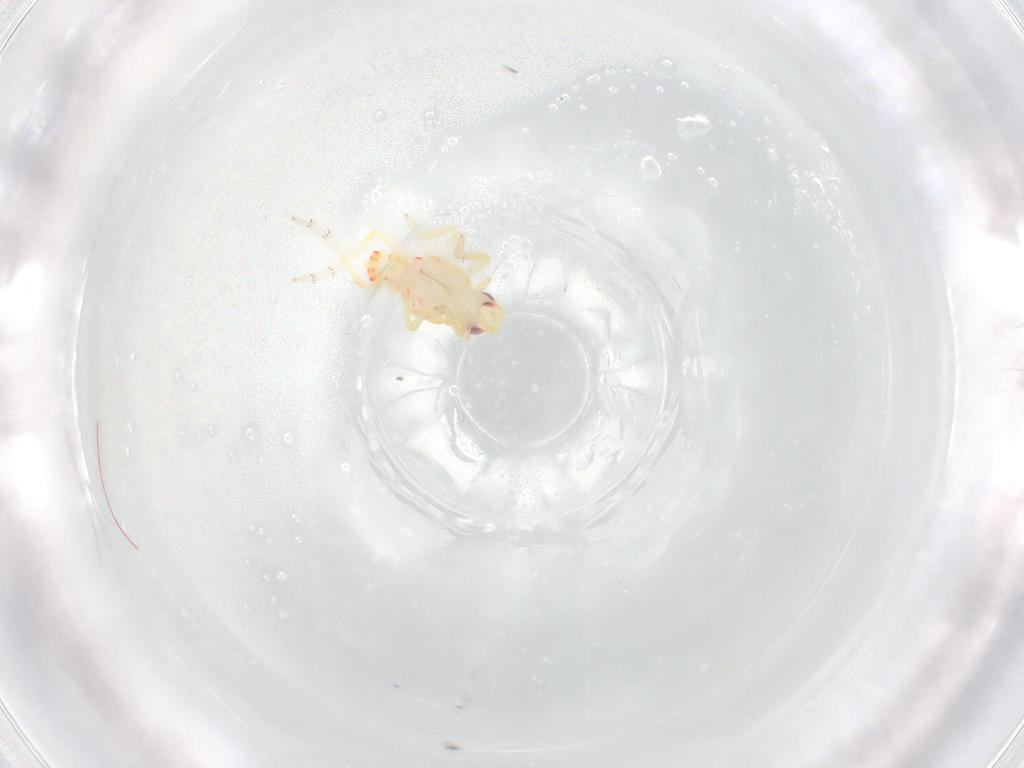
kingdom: Animalia
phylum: Arthropoda
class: Insecta
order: Hemiptera
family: Tropiduchidae
